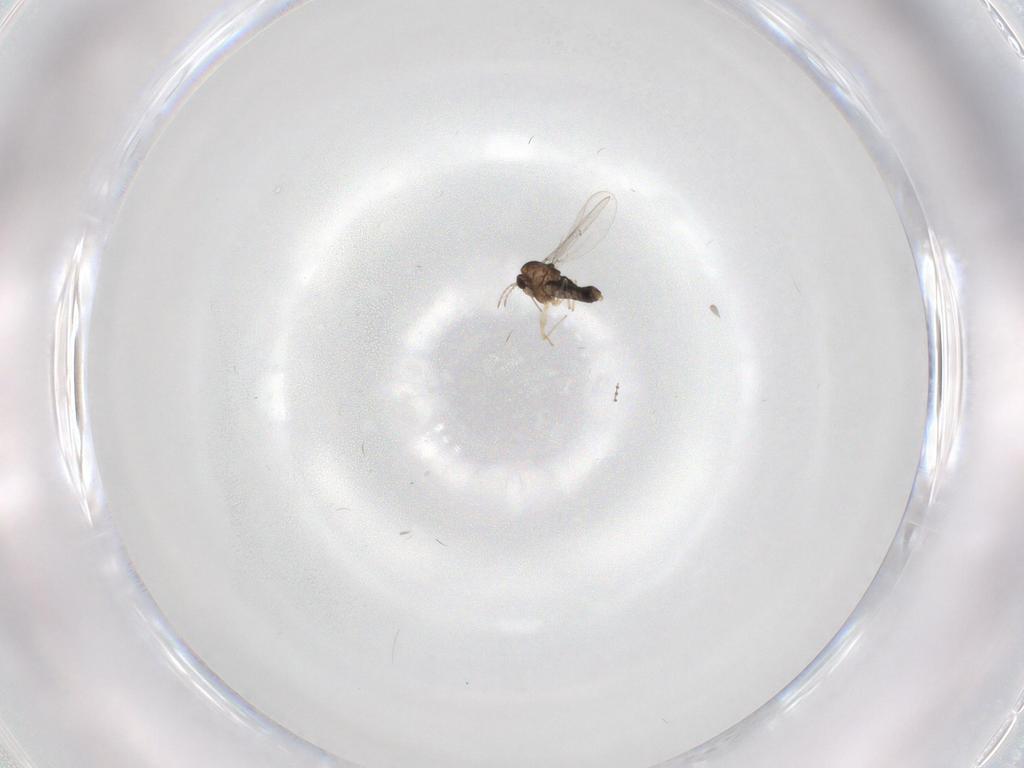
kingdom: Animalia
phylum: Arthropoda
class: Insecta
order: Diptera
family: Chironomidae
